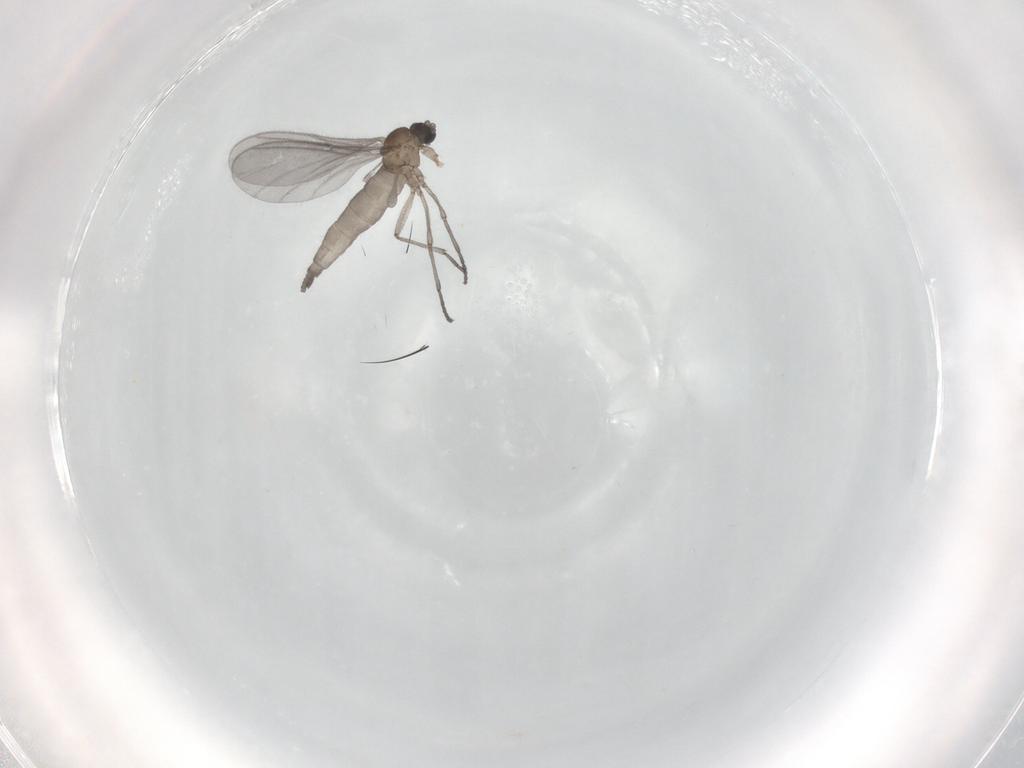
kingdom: Animalia
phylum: Arthropoda
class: Insecta
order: Diptera
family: Sciaridae
